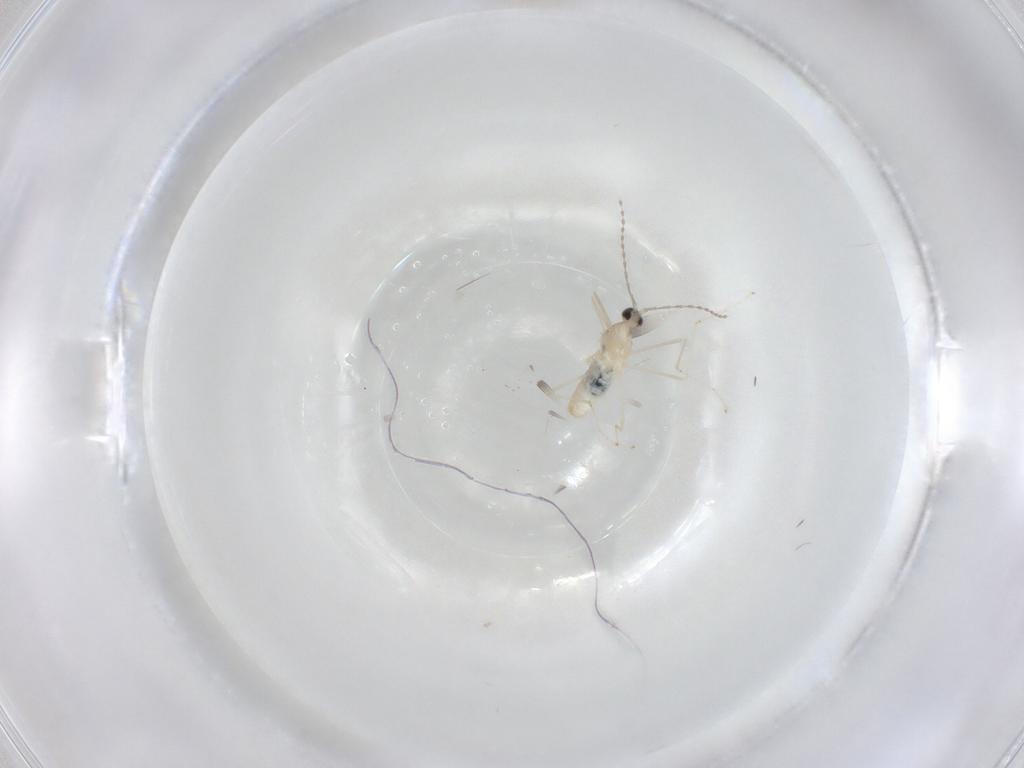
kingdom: Animalia
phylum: Arthropoda
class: Insecta
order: Diptera
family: Cecidomyiidae
